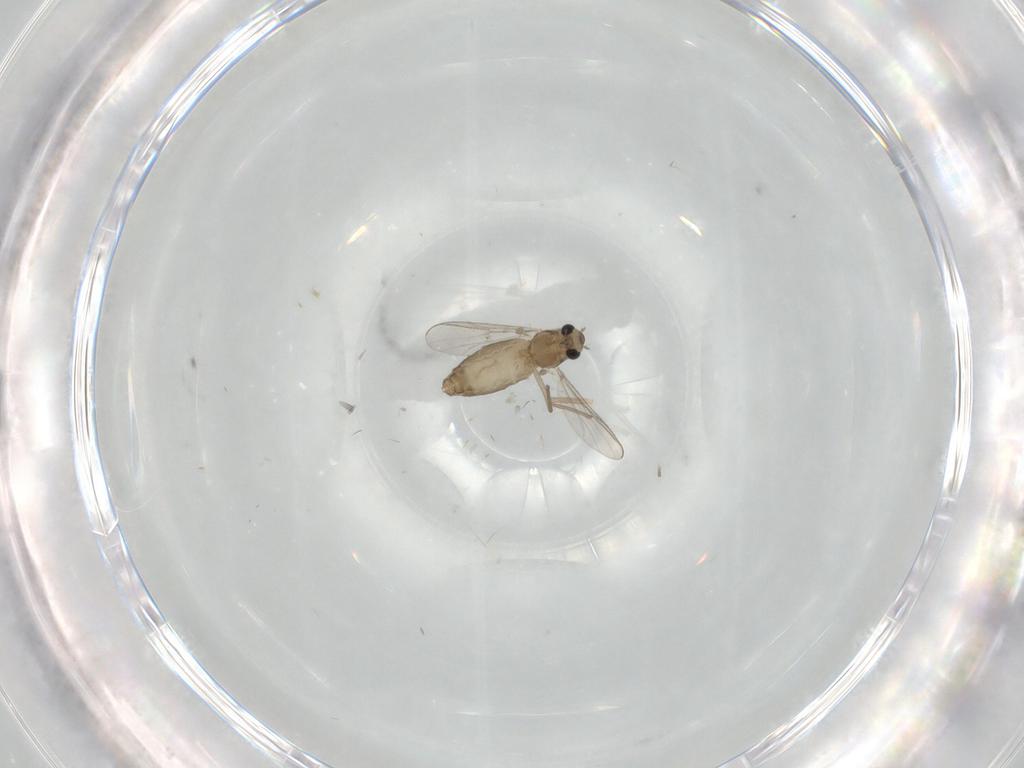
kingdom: Animalia
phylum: Arthropoda
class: Insecta
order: Diptera
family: Chironomidae
